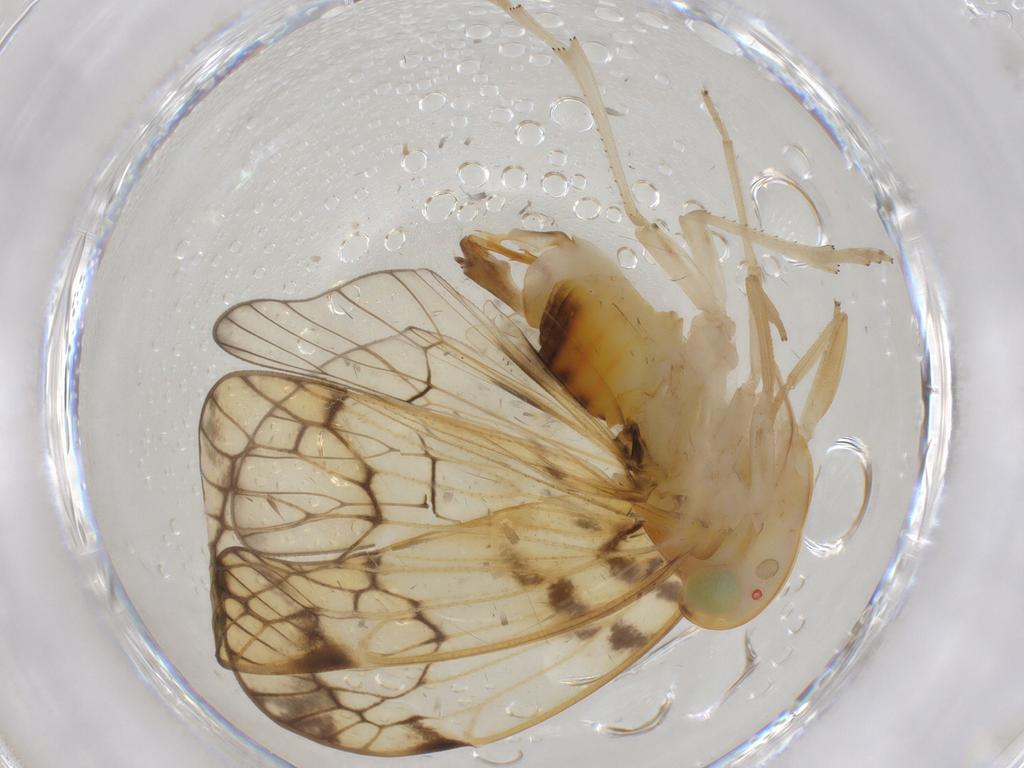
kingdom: Animalia
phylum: Arthropoda
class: Insecta
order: Hemiptera
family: Cixiidae
